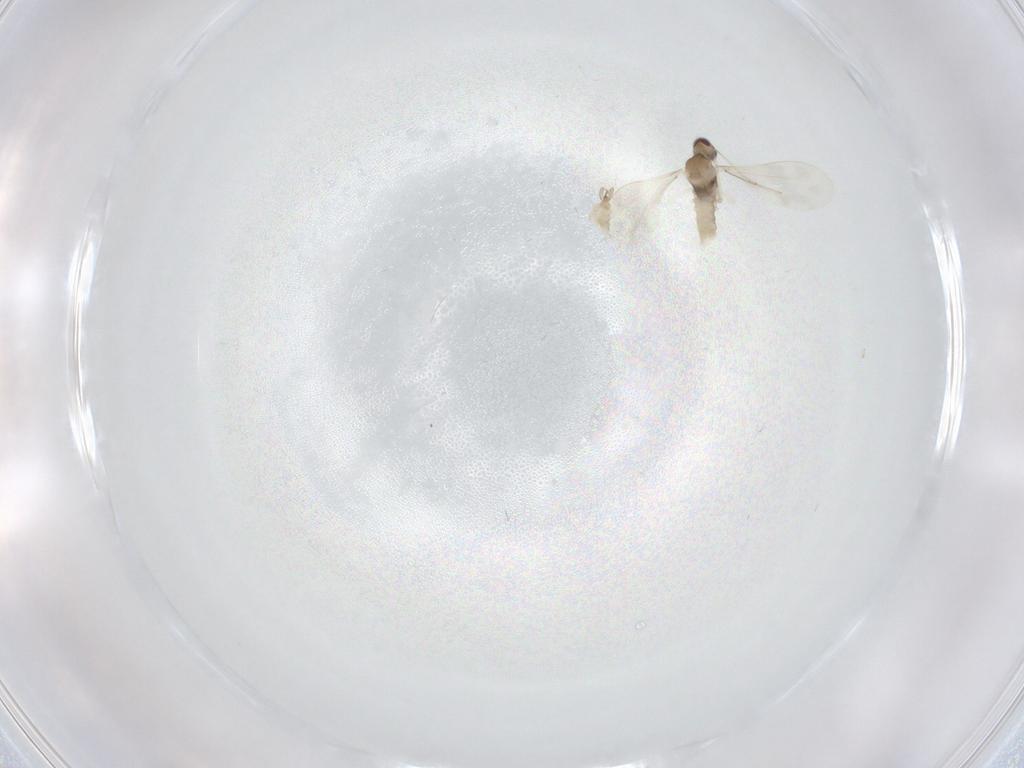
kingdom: Animalia
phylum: Arthropoda
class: Insecta
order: Diptera
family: Cecidomyiidae
